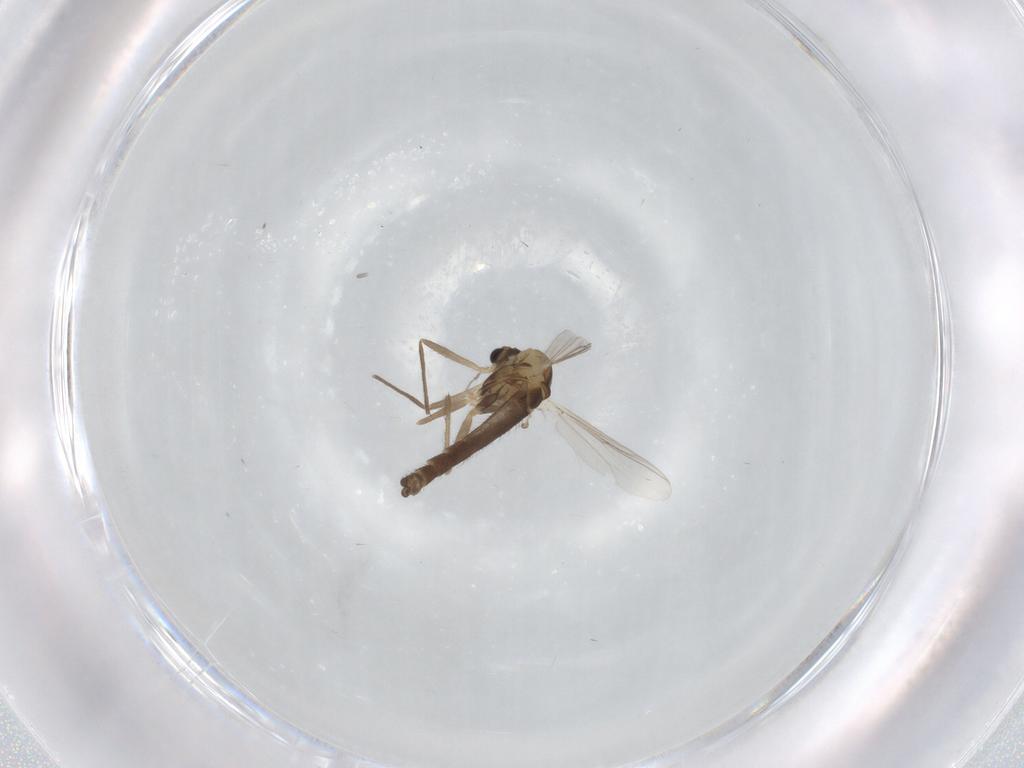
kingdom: Animalia
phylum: Arthropoda
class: Insecta
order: Diptera
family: Chironomidae
